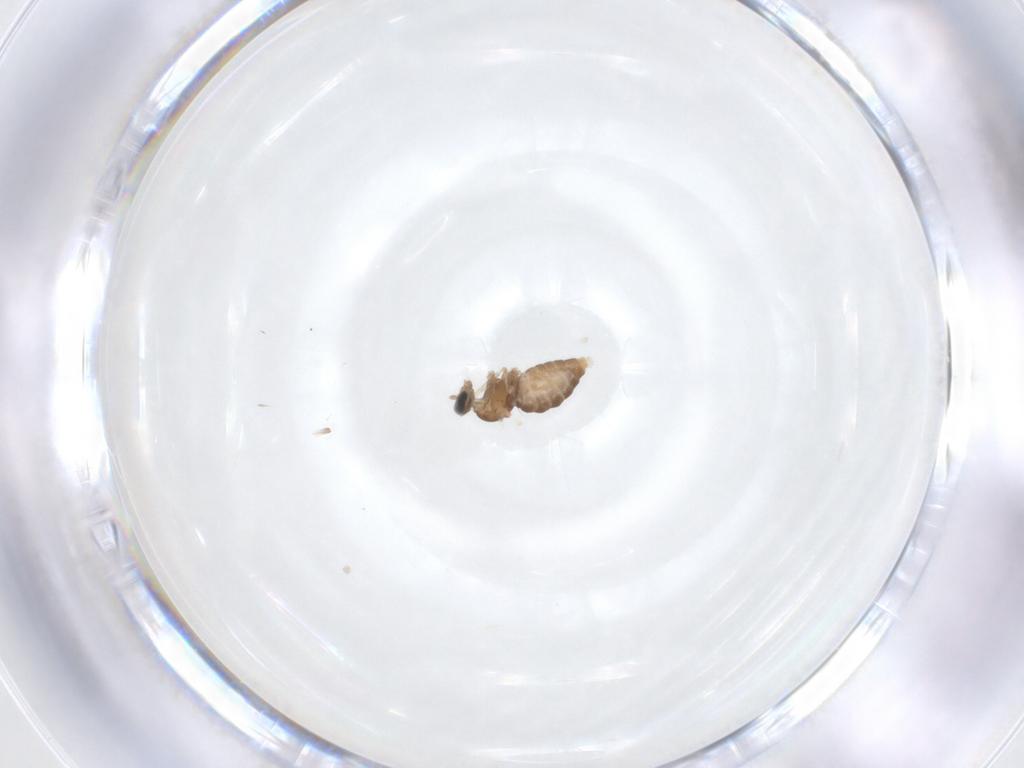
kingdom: Animalia
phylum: Arthropoda
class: Insecta
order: Diptera
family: Cecidomyiidae
